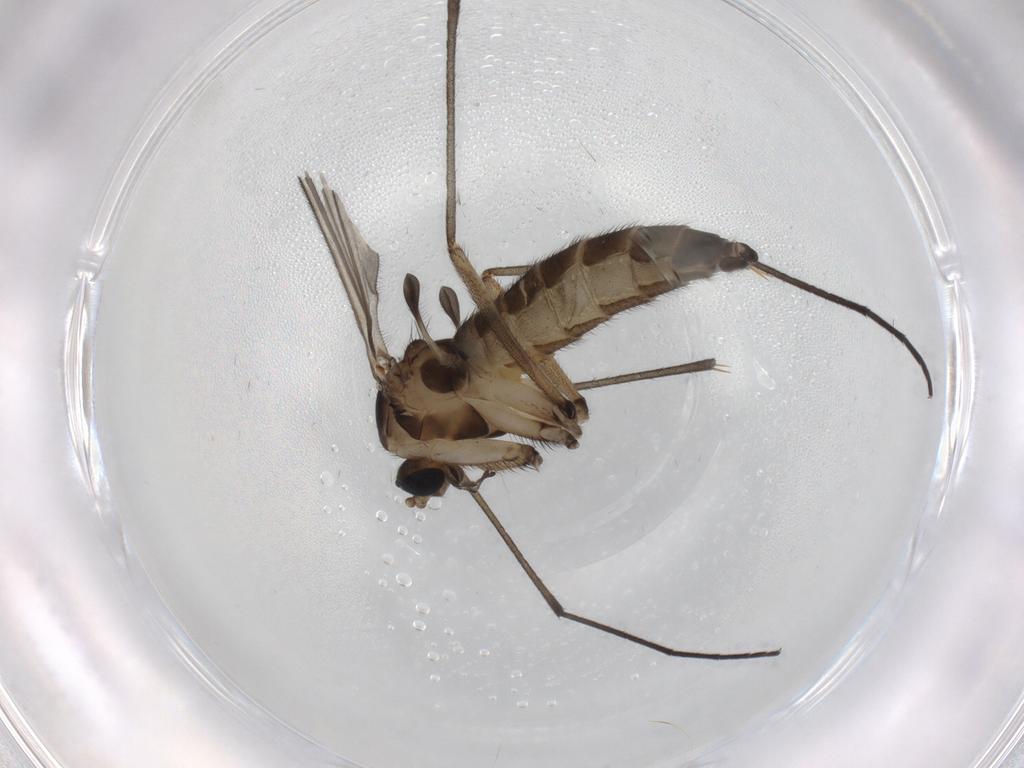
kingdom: Animalia
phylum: Arthropoda
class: Insecta
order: Diptera
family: Sciaridae
